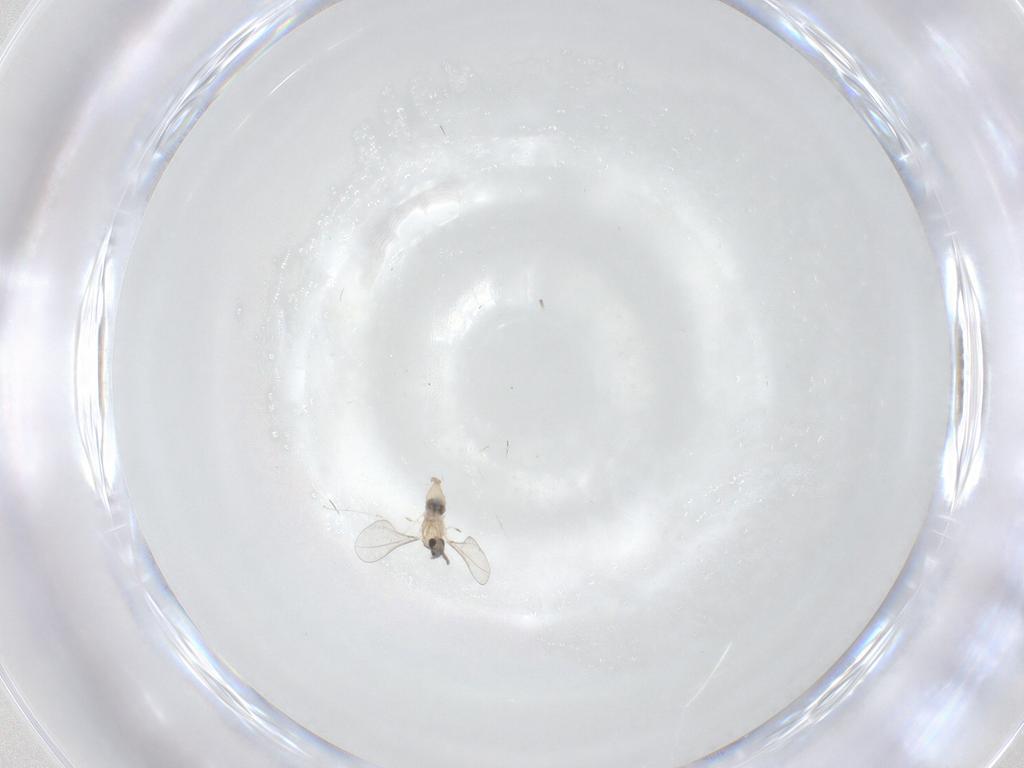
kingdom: Animalia
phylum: Arthropoda
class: Insecta
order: Diptera
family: Cecidomyiidae
